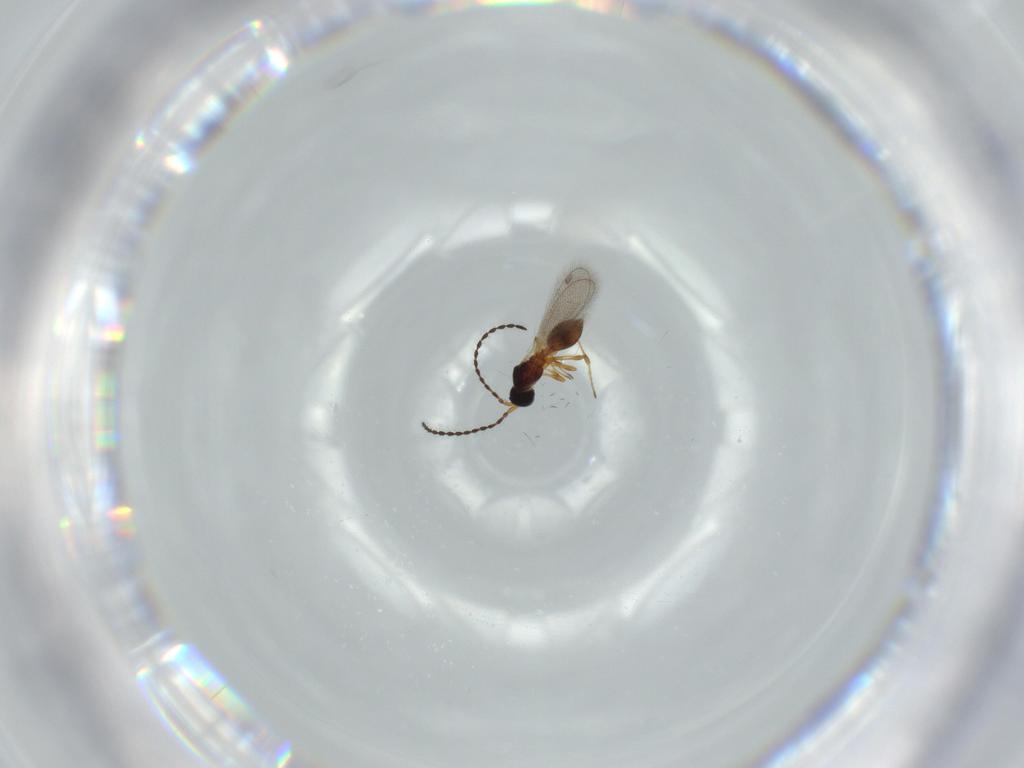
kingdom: Animalia
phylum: Arthropoda
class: Insecta
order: Hymenoptera
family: Diapriidae
